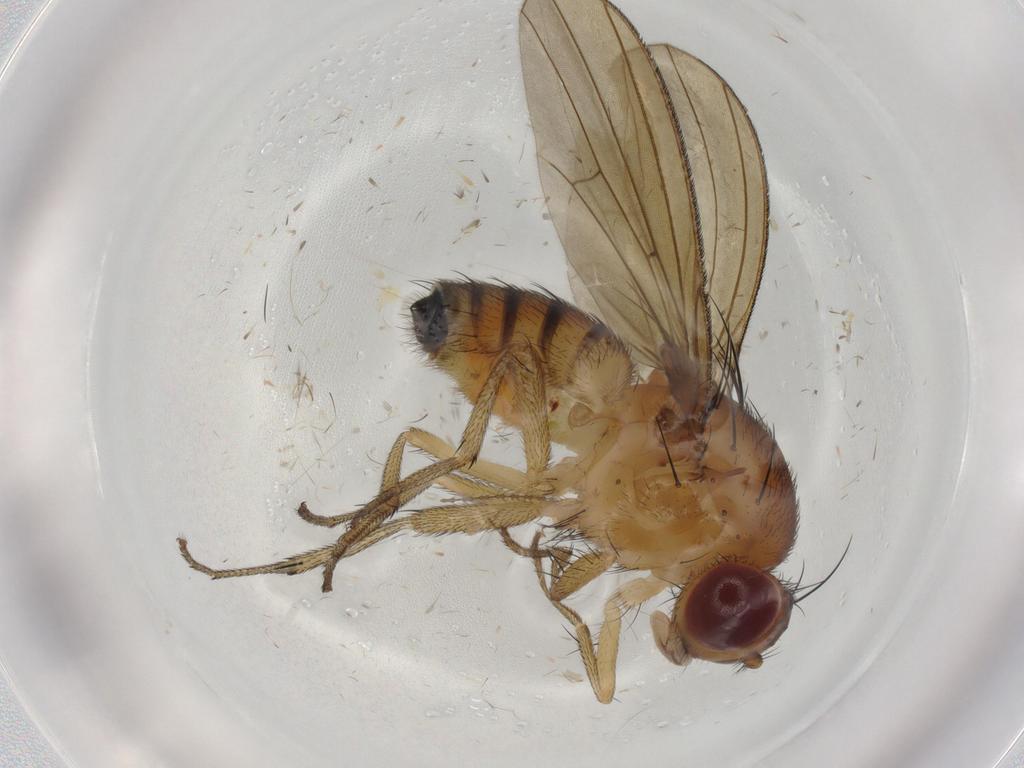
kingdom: Animalia
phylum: Arthropoda
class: Insecta
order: Diptera
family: Cecidomyiidae
